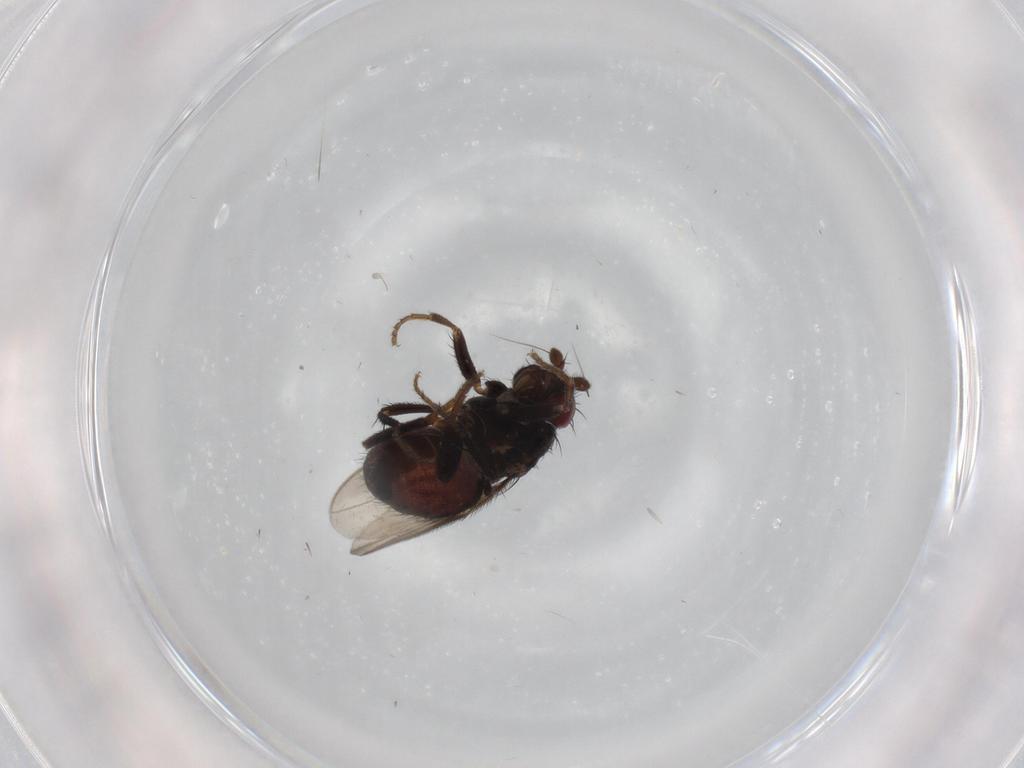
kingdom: Animalia
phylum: Arthropoda
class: Insecta
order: Diptera
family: Sphaeroceridae
